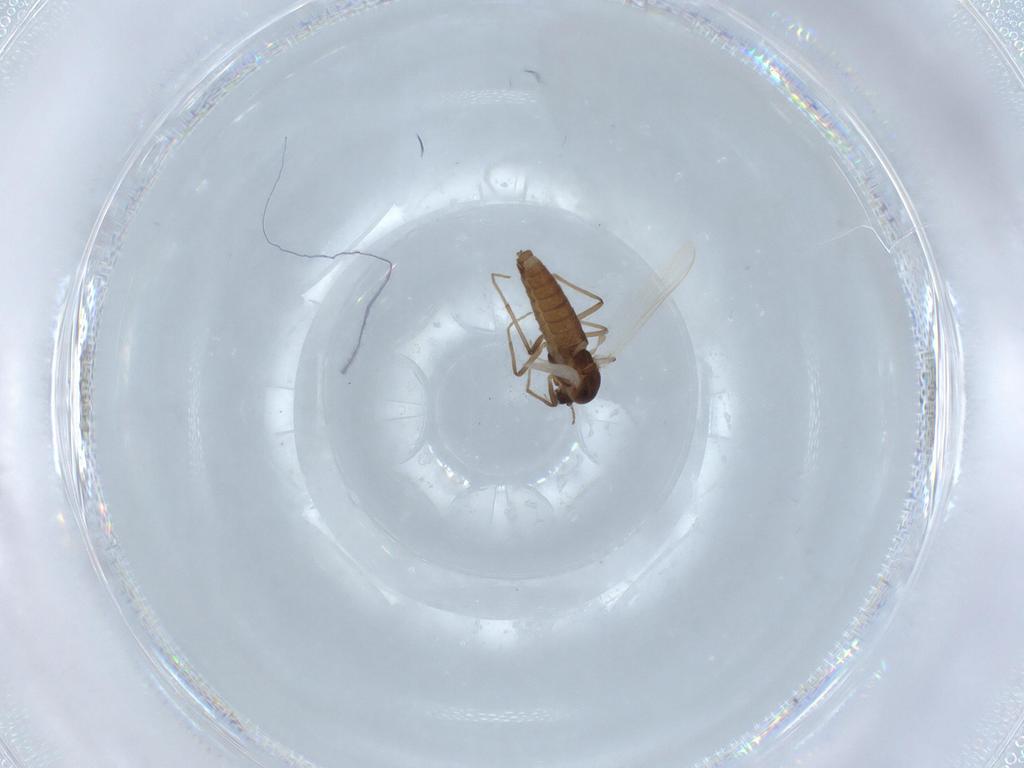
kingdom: Animalia
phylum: Arthropoda
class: Insecta
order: Diptera
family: Chironomidae
